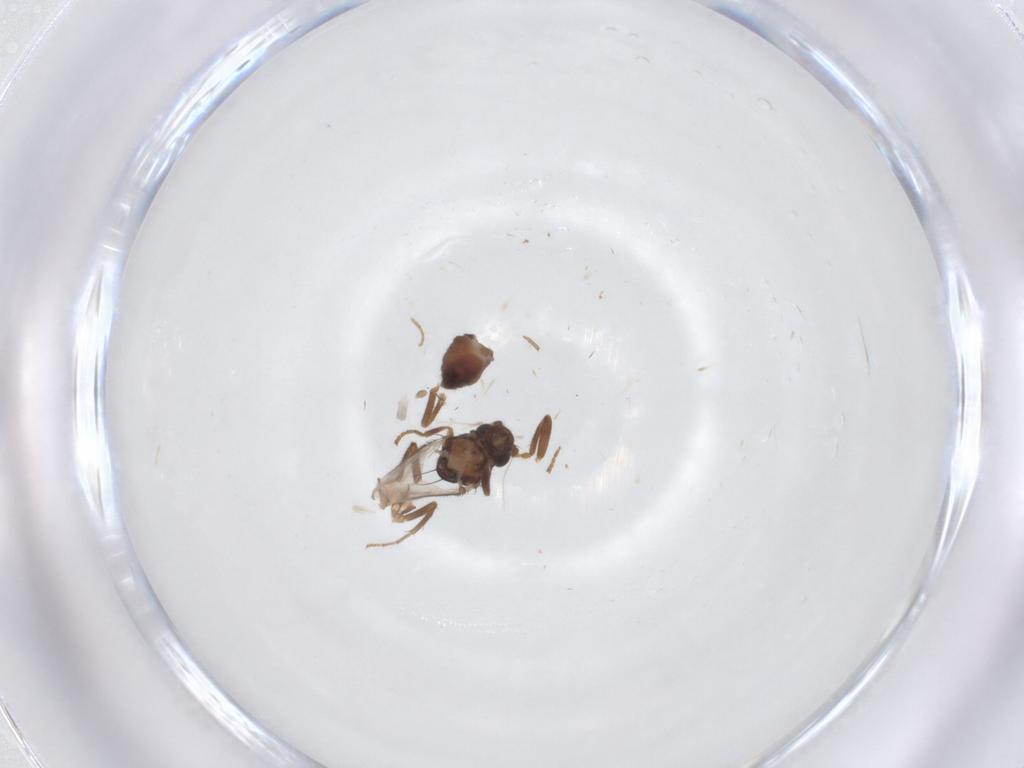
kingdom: Animalia
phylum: Arthropoda
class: Insecta
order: Diptera
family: Sphaeroceridae
